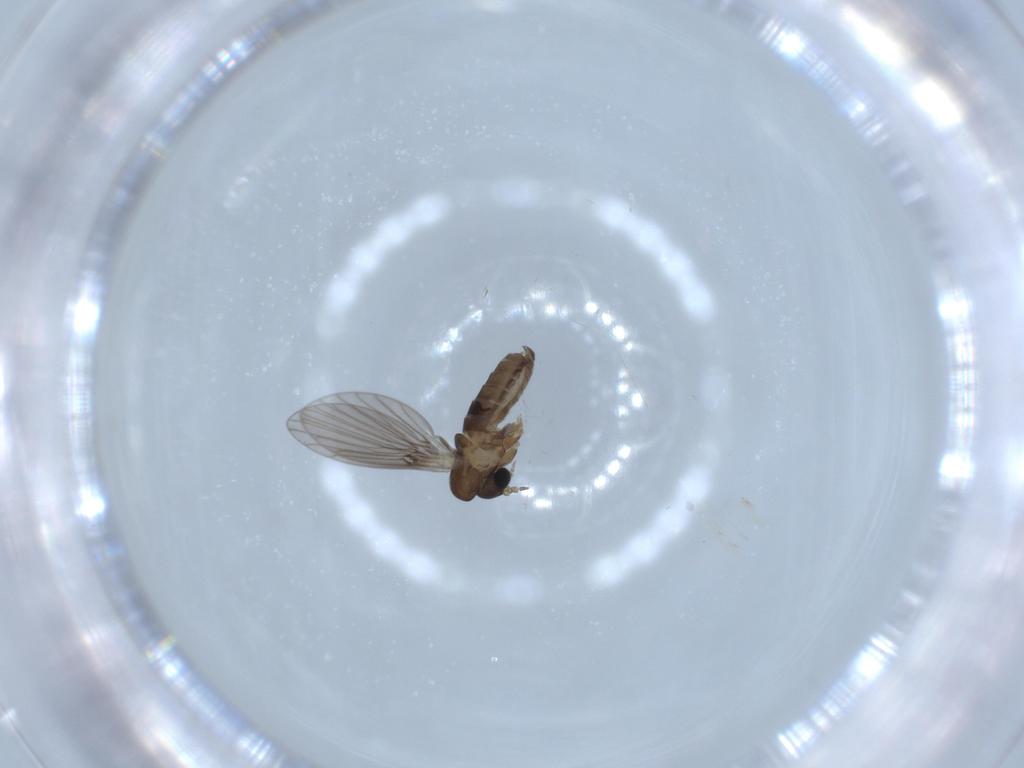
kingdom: Animalia
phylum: Arthropoda
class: Insecta
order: Diptera
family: Psychodidae
